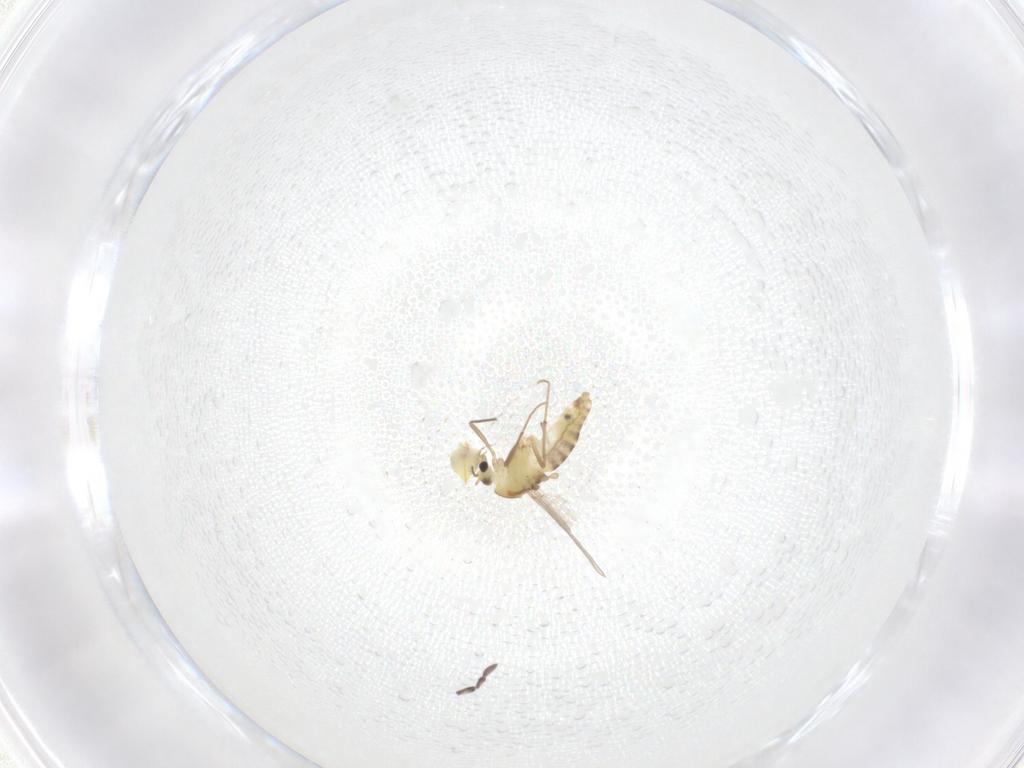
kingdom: Animalia
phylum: Arthropoda
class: Insecta
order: Diptera
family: Chironomidae
